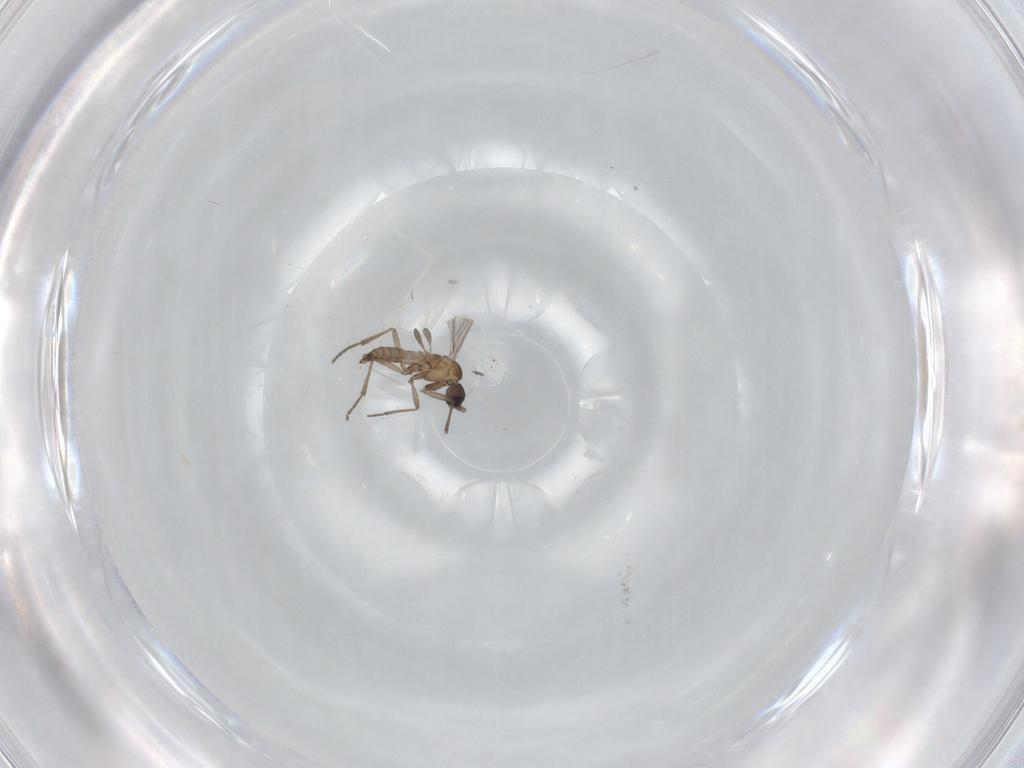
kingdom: Animalia
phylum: Arthropoda
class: Insecta
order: Diptera
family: Sciaridae
